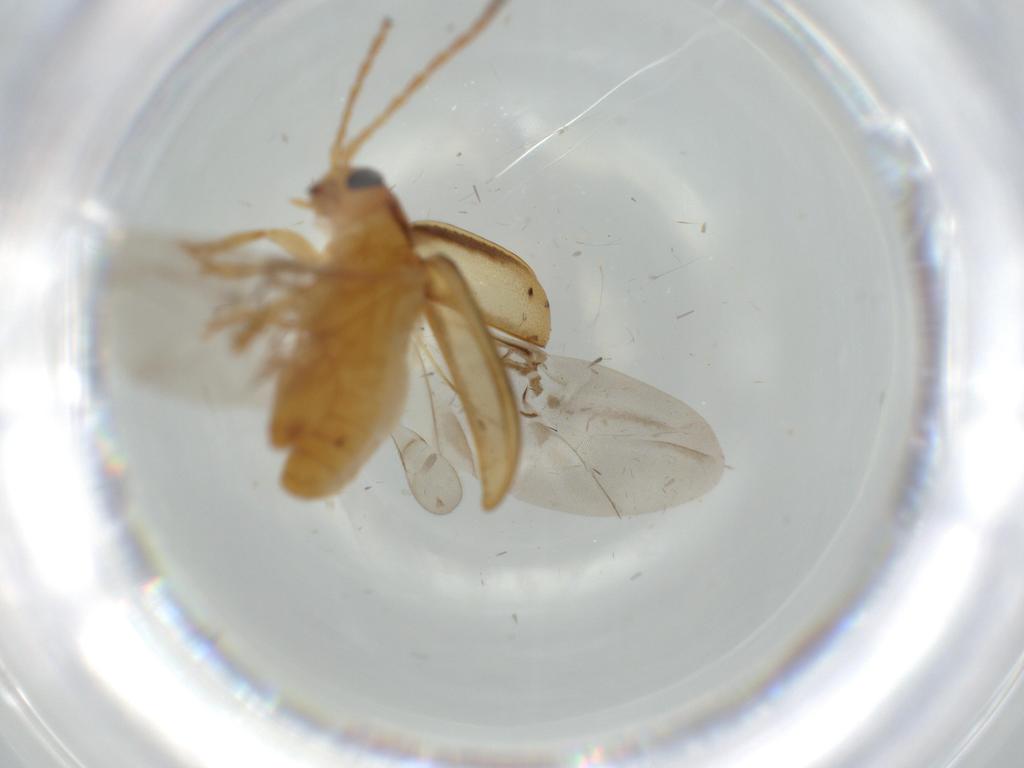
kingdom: Animalia
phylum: Arthropoda
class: Insecta
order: Coleoptera
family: Chrysomelidae
